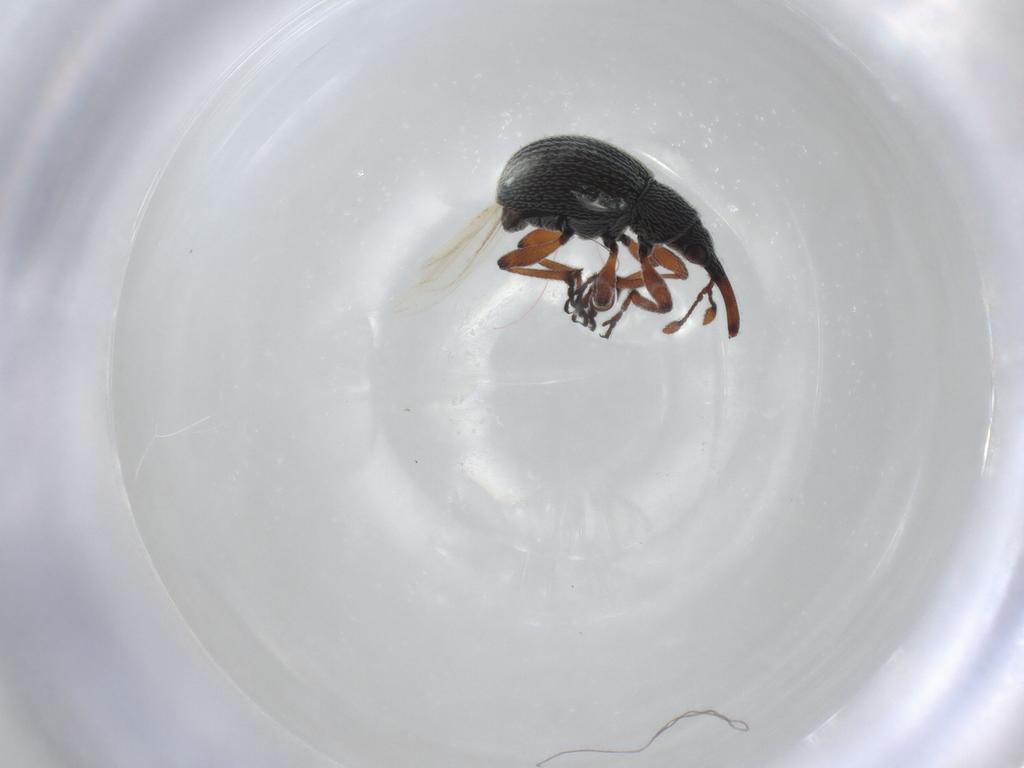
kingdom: Animalia
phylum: Arthropoda
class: Insecta
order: Coleoptera
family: Brentidae
